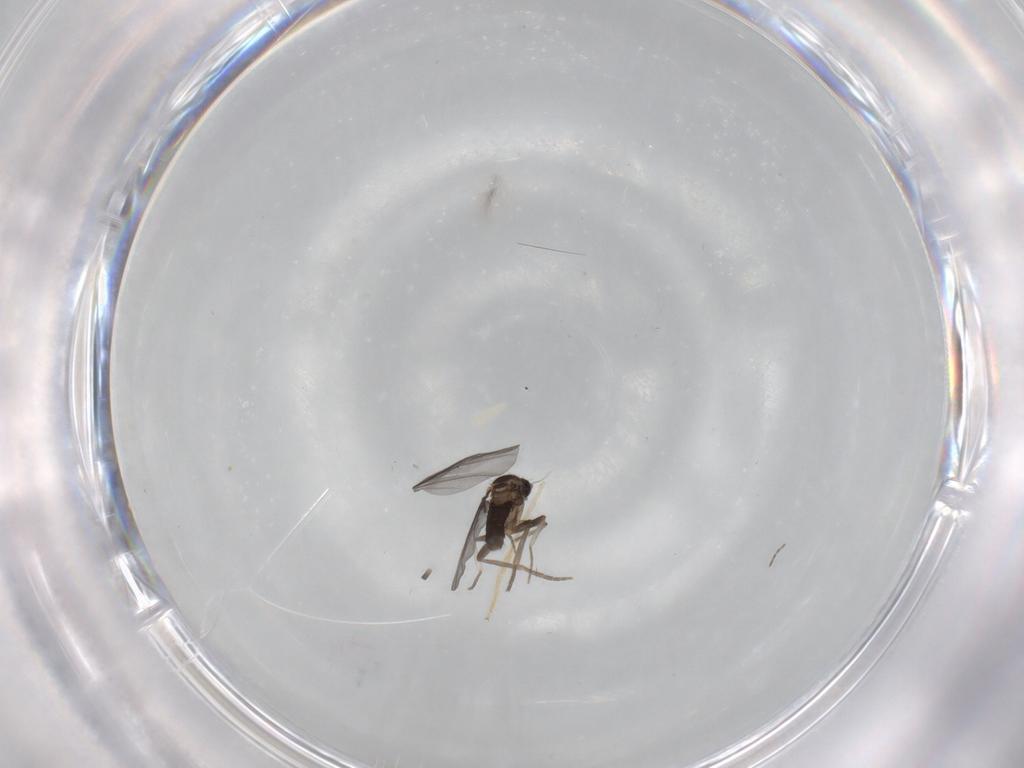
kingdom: Animalia
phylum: Arthropoda
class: Insecta
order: Diptera
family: Phoridae
